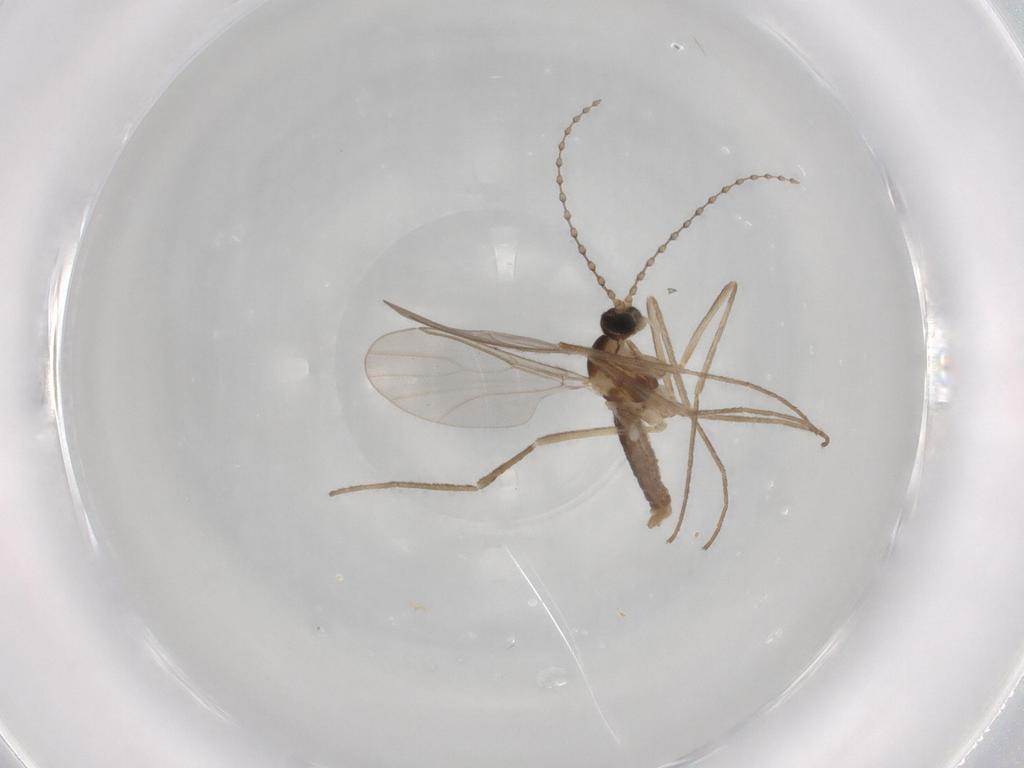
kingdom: Animalia
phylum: Arthropoda
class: Insecta
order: Diptera
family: Cecidomyiidae
